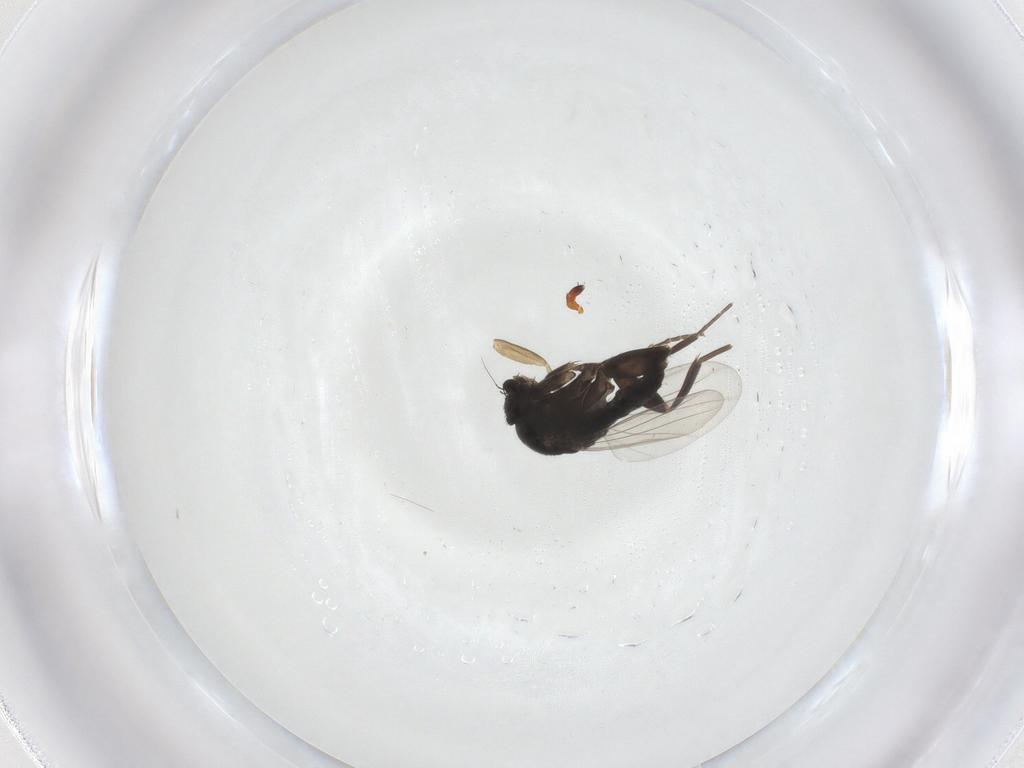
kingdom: Animalia
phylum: Arthropoda
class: Insecta
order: Diptera
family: Phoridae
